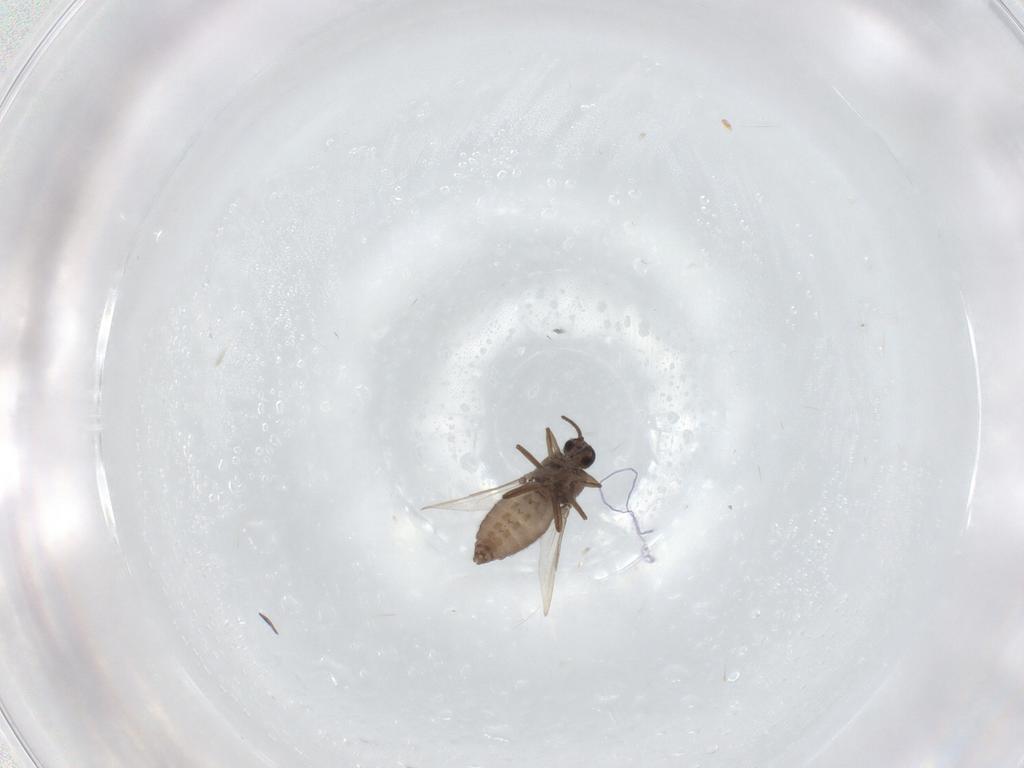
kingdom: Animalia
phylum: Arthropoda
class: Insecta
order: Diptera
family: Ceratopogonidae
